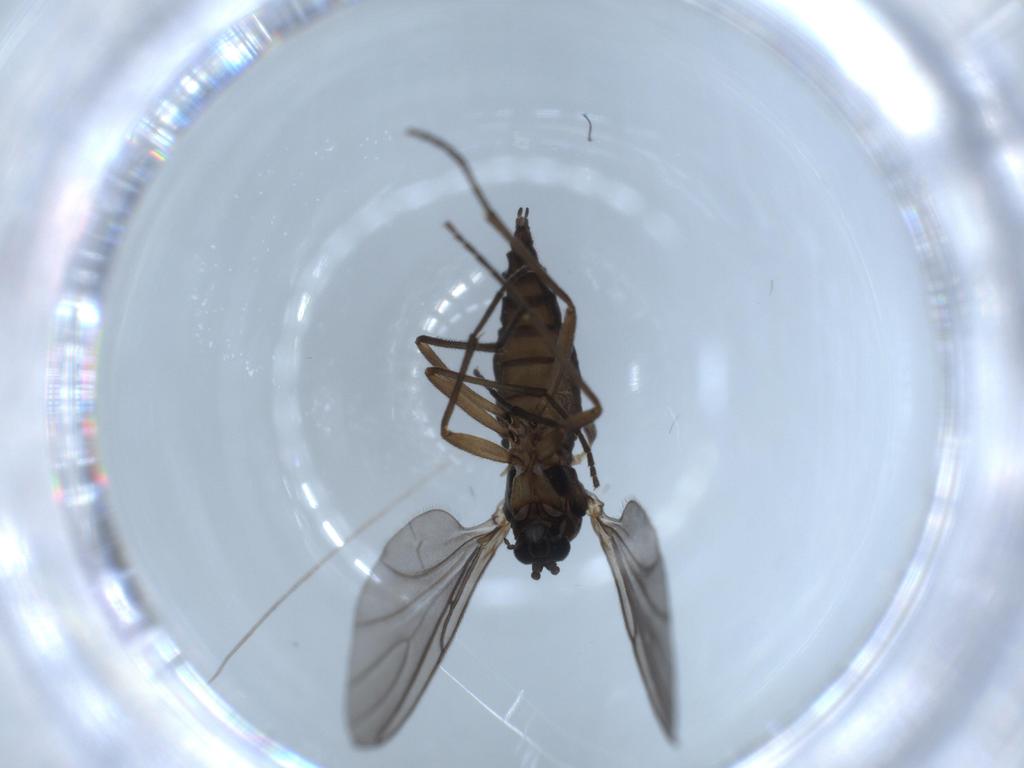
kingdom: Animalia
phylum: Arthropoda
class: Insecta
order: Diptera
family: Sciaridae
